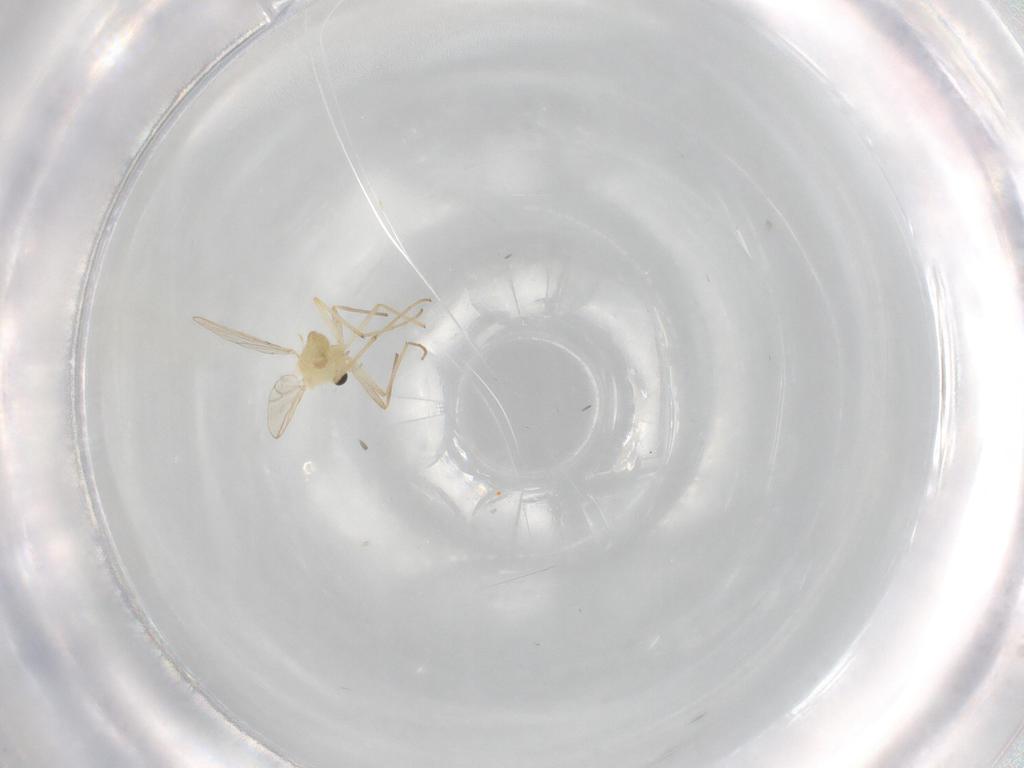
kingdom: Animalia
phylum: Arthropoda
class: Insecta
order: Diptera
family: Chironomidae
